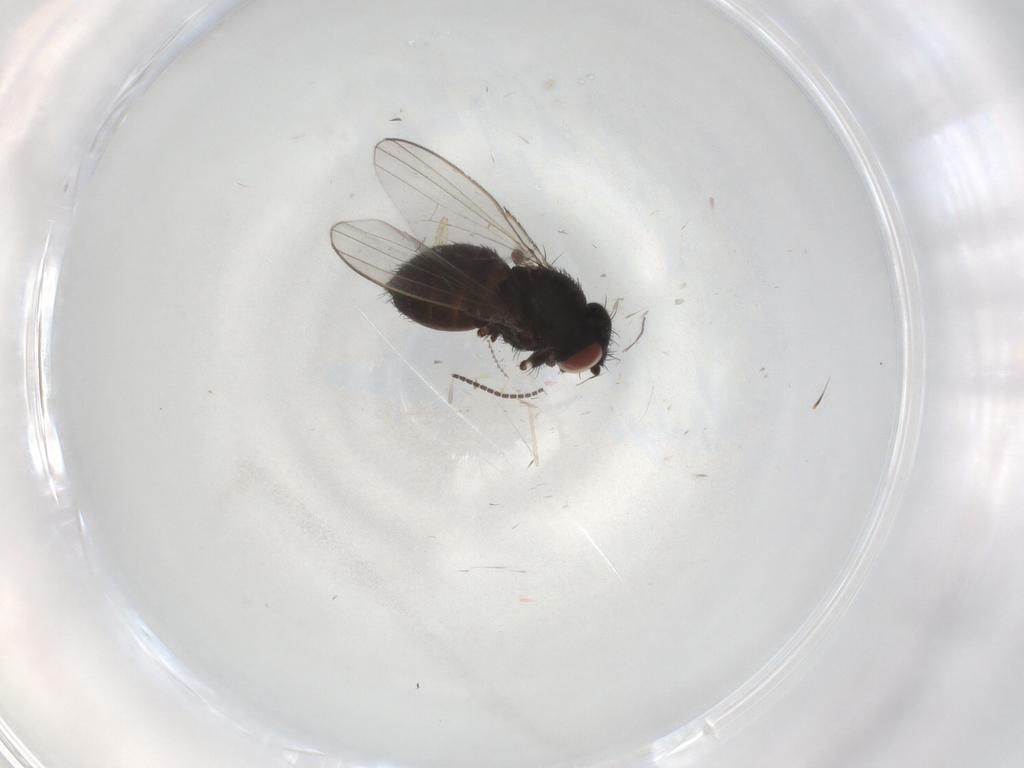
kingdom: Animalia
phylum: Arthropoda
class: Insecta
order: Diptera
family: Milichiidae
